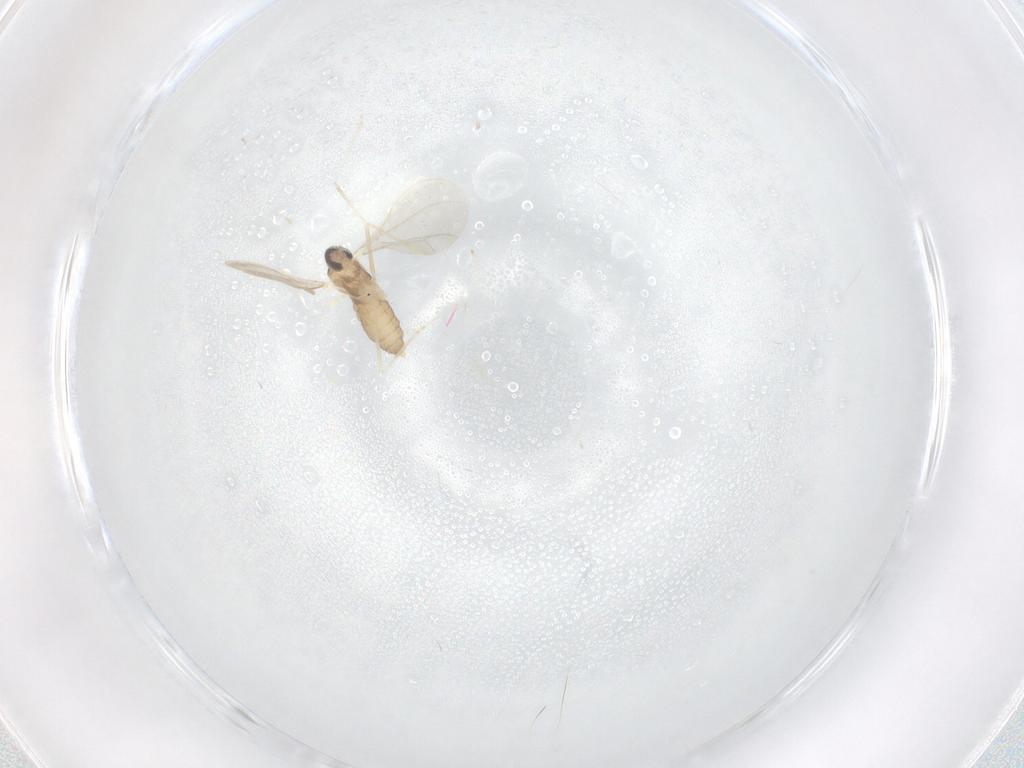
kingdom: Animalia
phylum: Arthropoda
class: Insecta
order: Diptera
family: Cecidomyiidae
